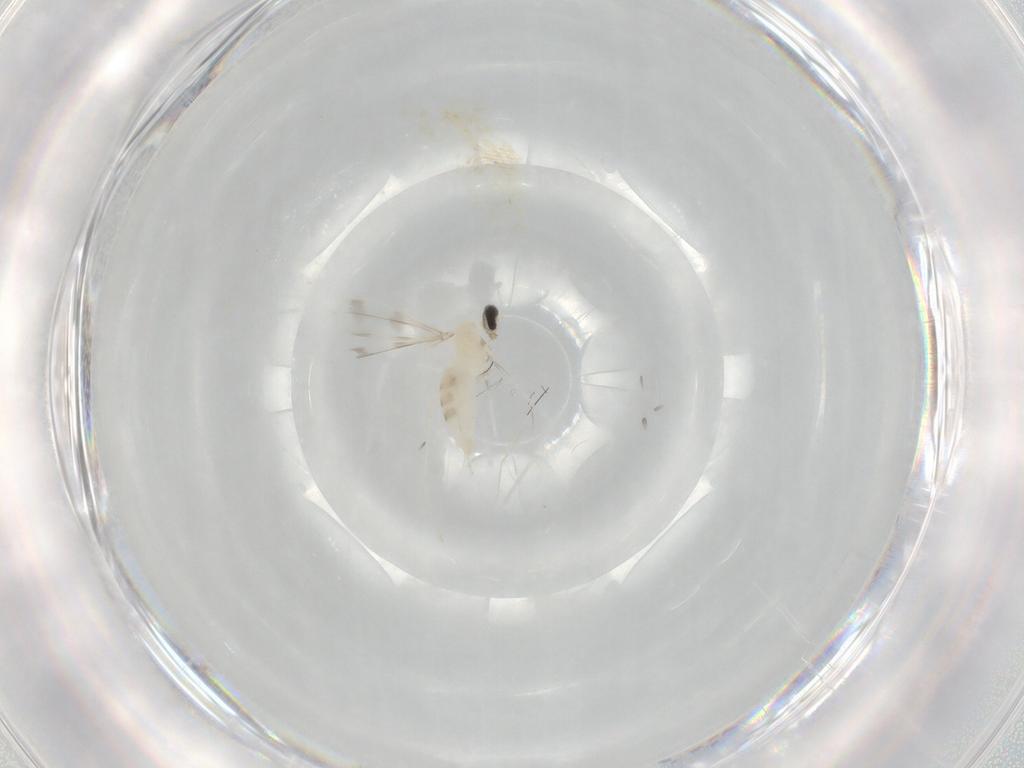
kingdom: Animalia
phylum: Arthropoda
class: Insecta
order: Diptera
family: Cecidomyiidae
